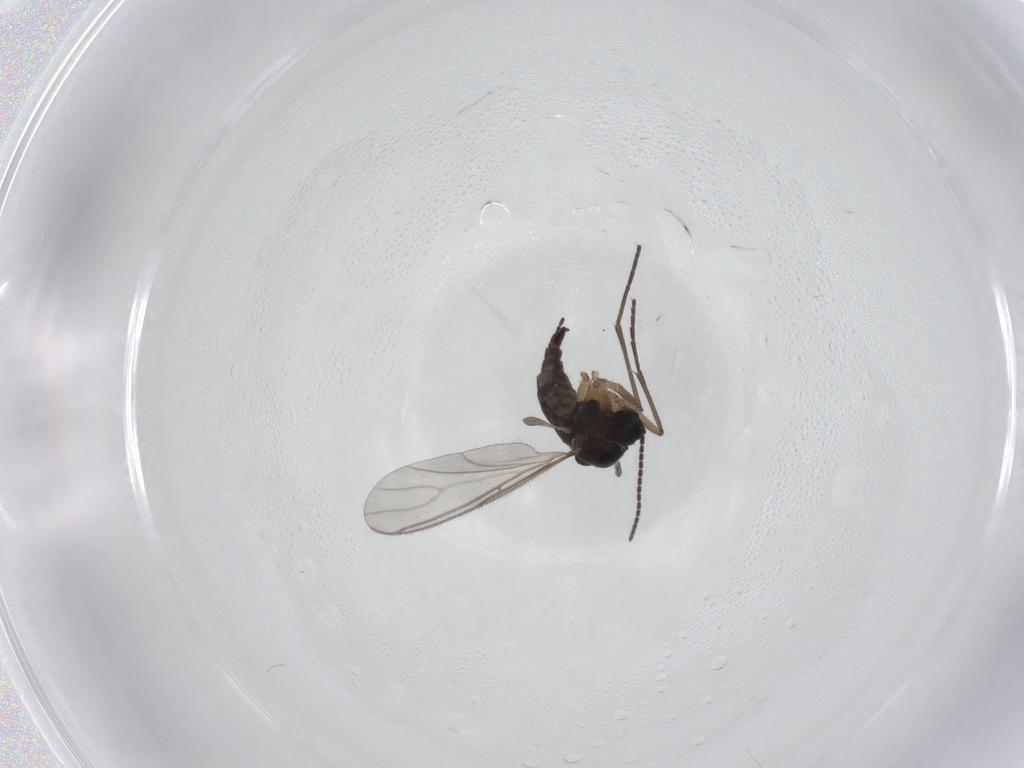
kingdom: Animalia
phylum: Arthropoda
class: Insecta
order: Diptera
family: Sciaridae
